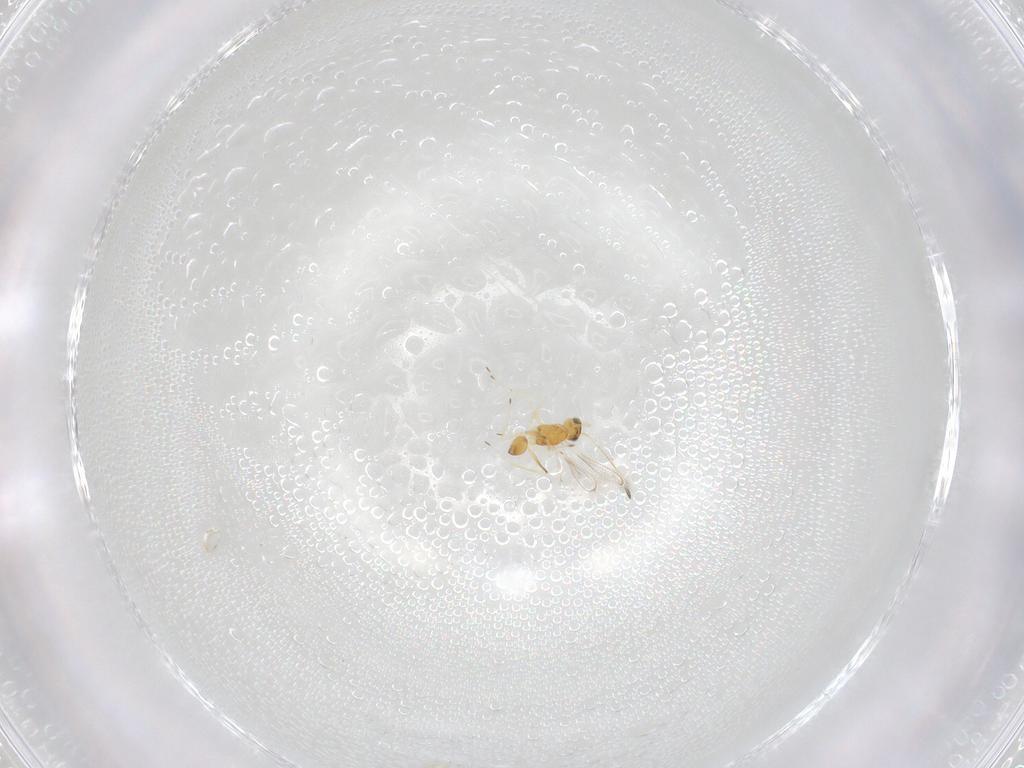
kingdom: Animalia
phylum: Arthropoda
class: Insecta
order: Hymenoptera
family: Mymaridae
